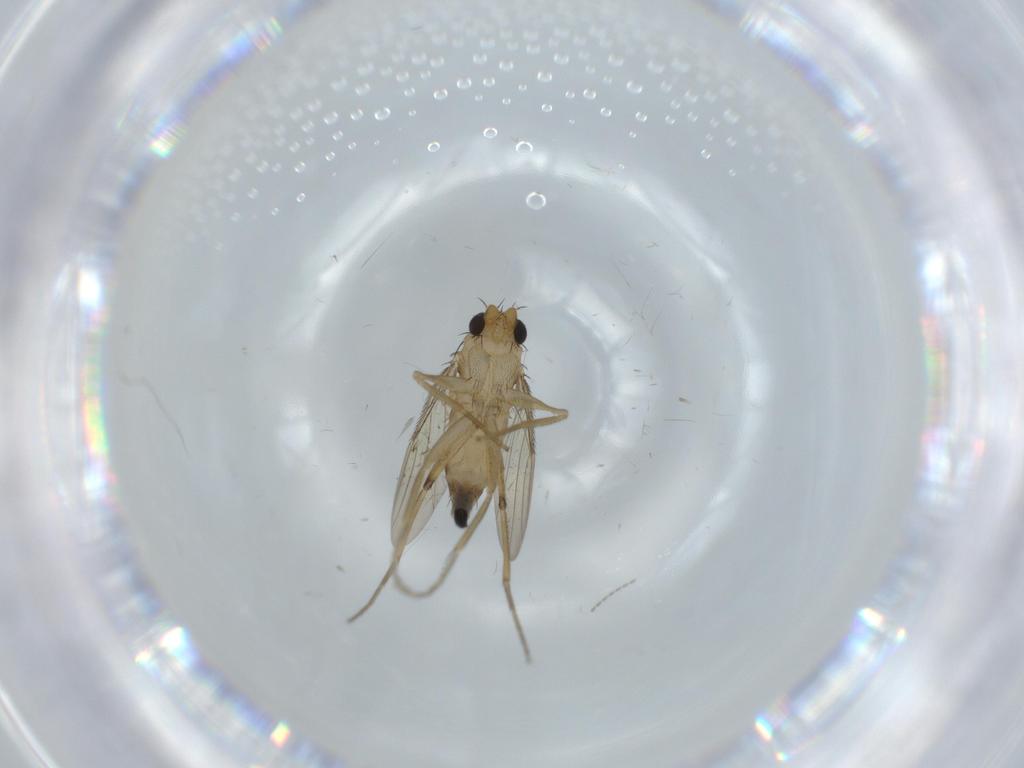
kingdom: Animalia
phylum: Arthropoda
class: Insecta
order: Diptera
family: Phoridae
